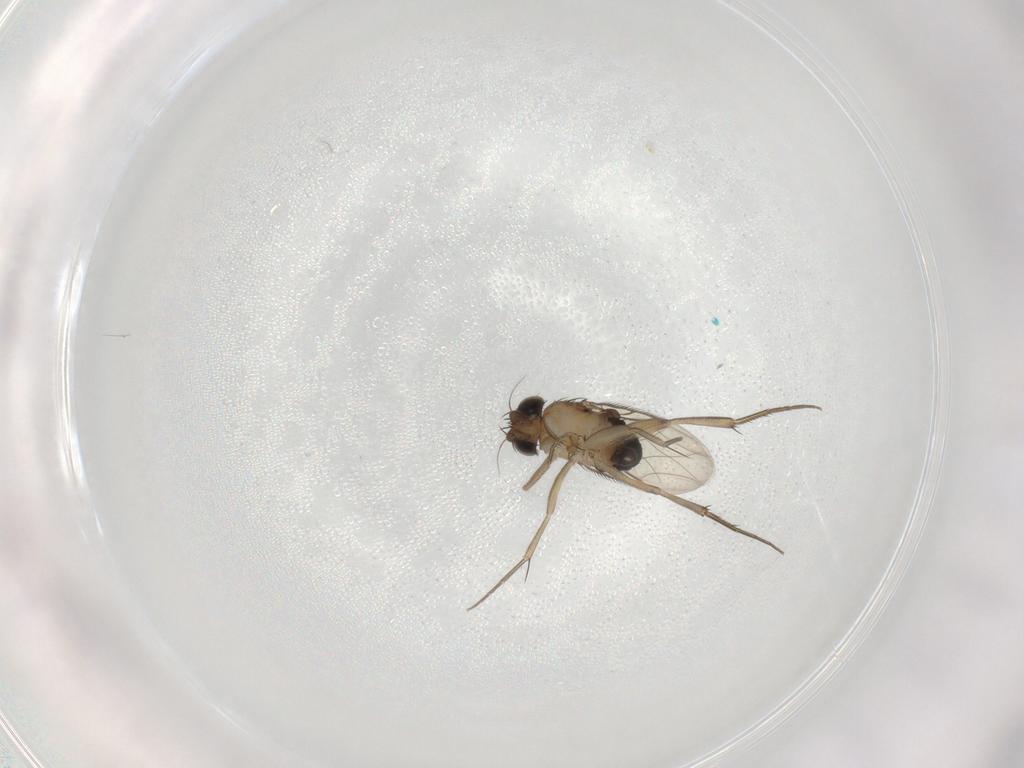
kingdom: Animalia
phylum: Arthropoda
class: Insecta
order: Diptera
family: Phoridae
